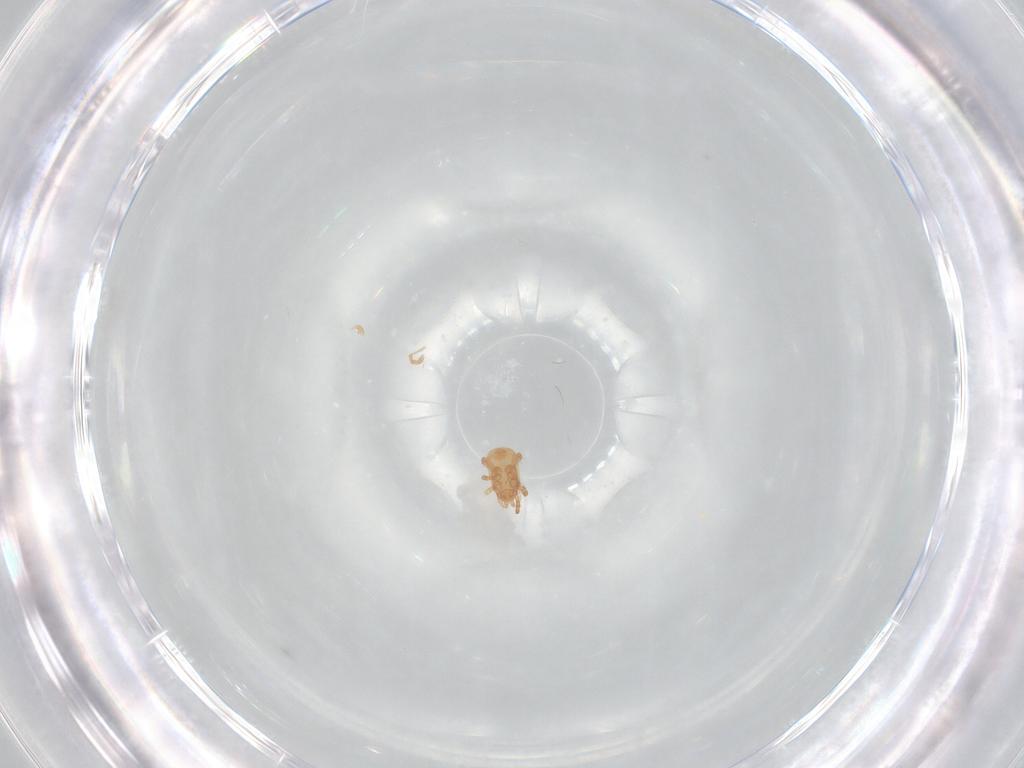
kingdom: Animalia
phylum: Arthropoda
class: Arachnida
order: Mesostigmata
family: Ascidae
